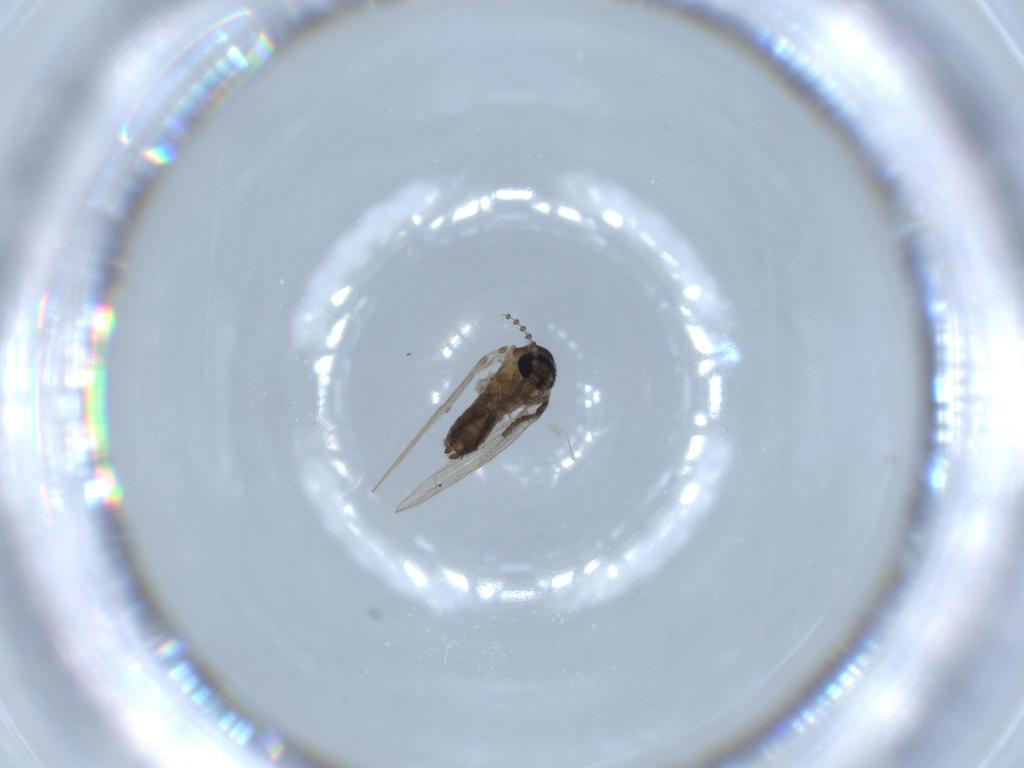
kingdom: Animalia
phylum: Arthropoda
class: Insecta
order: Diptera
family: Psychodidae
